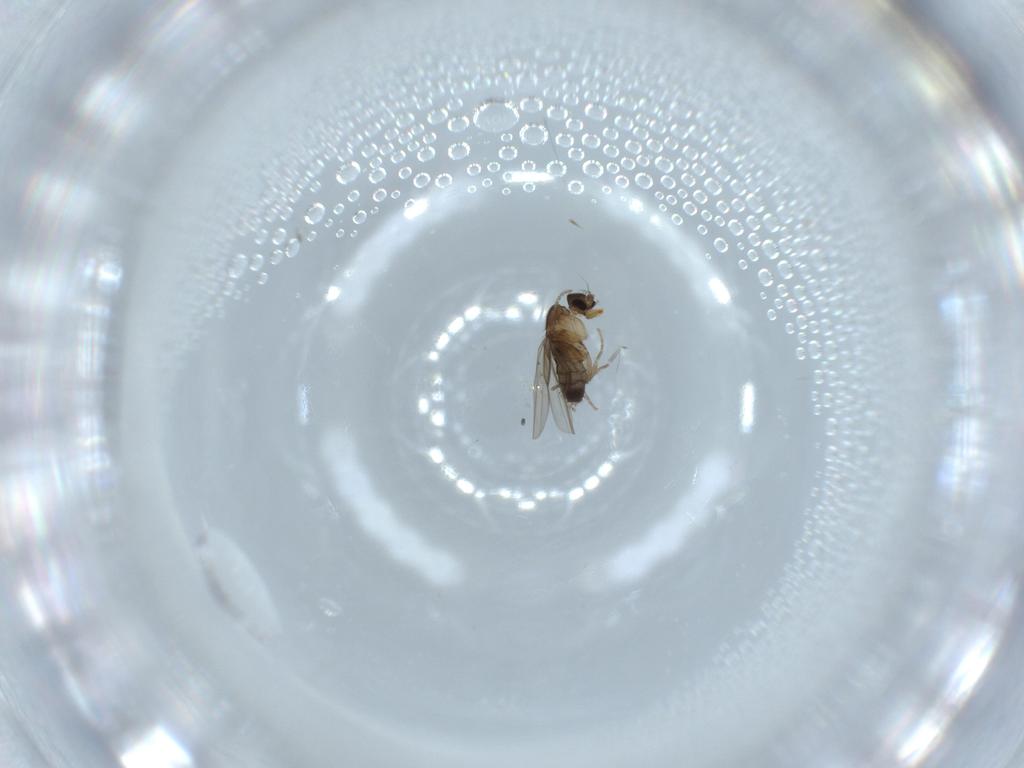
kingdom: Animalia
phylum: Arthropoda
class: Insecta
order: Diptera
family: Phoridae
